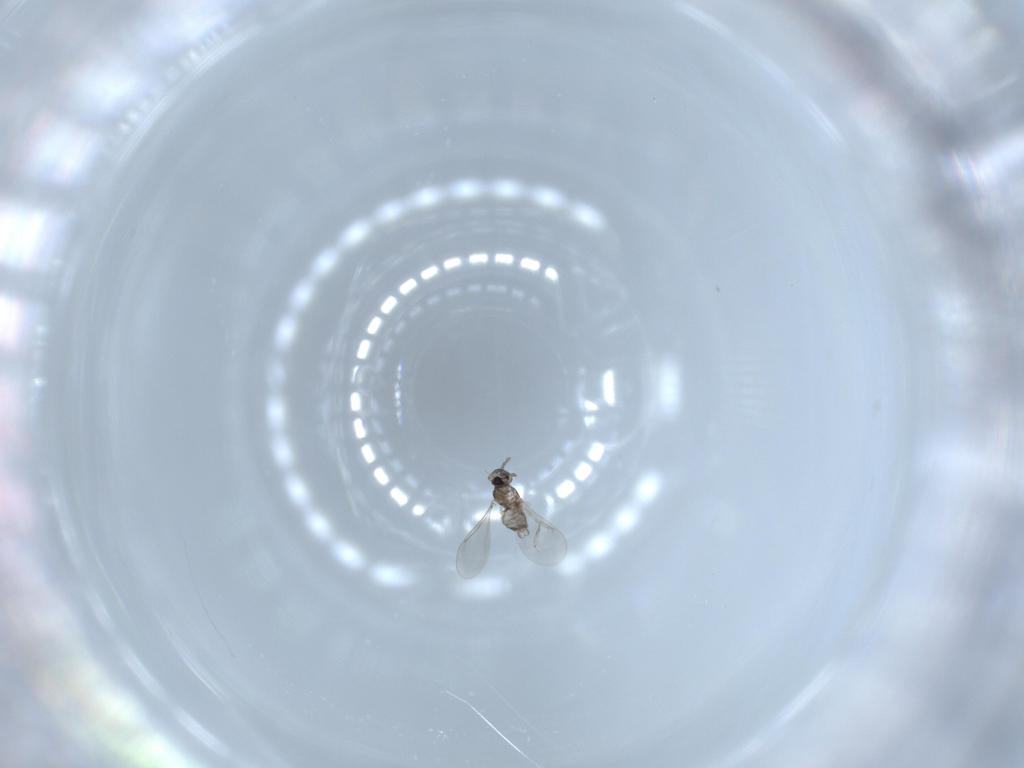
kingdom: Animalia
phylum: Arthropoda
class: Insecta
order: Diptera
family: Cecidomyiidae
